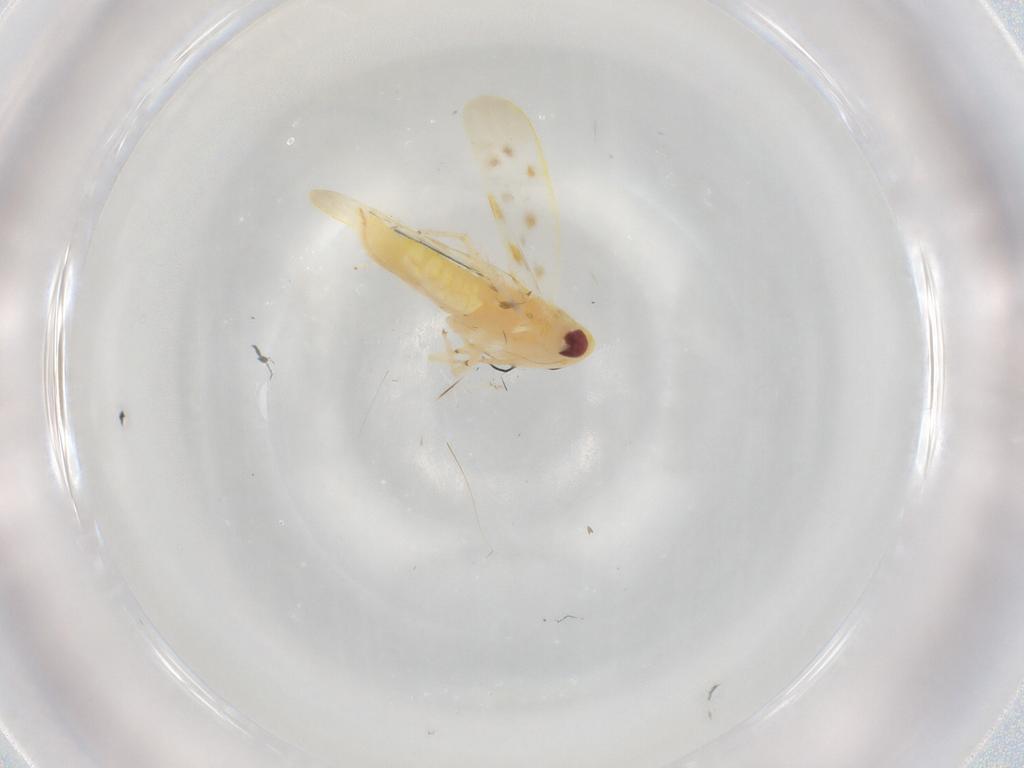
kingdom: Animalia
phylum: Arthropoda
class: Insecta
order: Hemiptera
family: Cicadellidae
